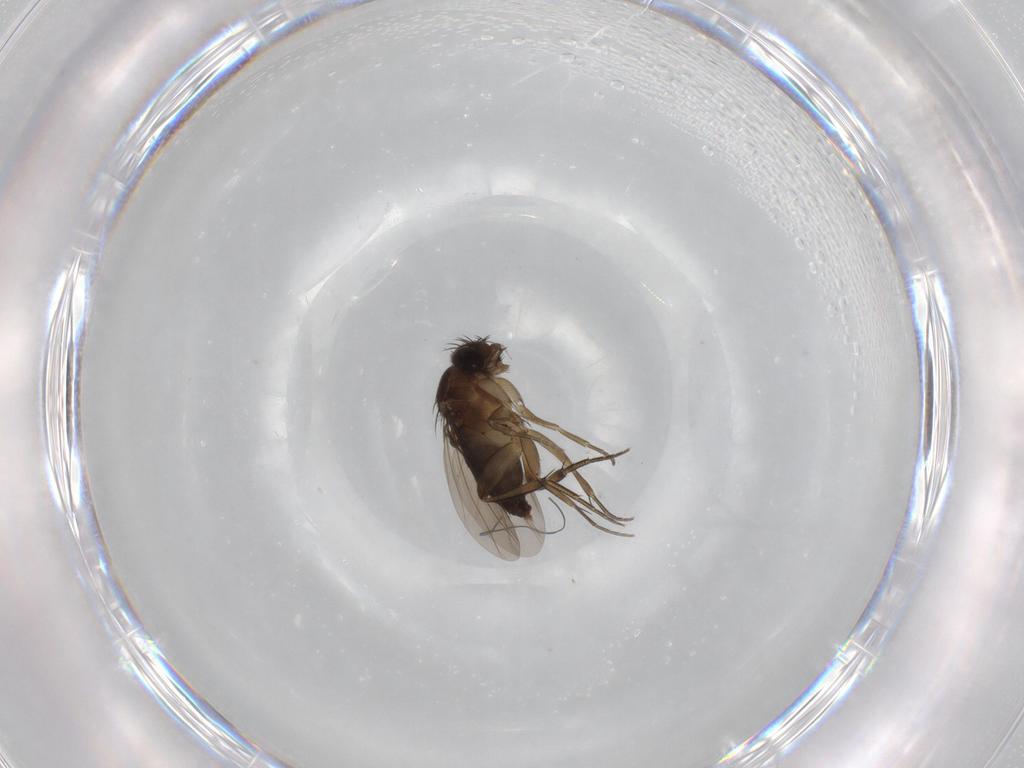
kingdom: Animalia
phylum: Arthropoda
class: Insecta
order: Diptera
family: Phoridae
